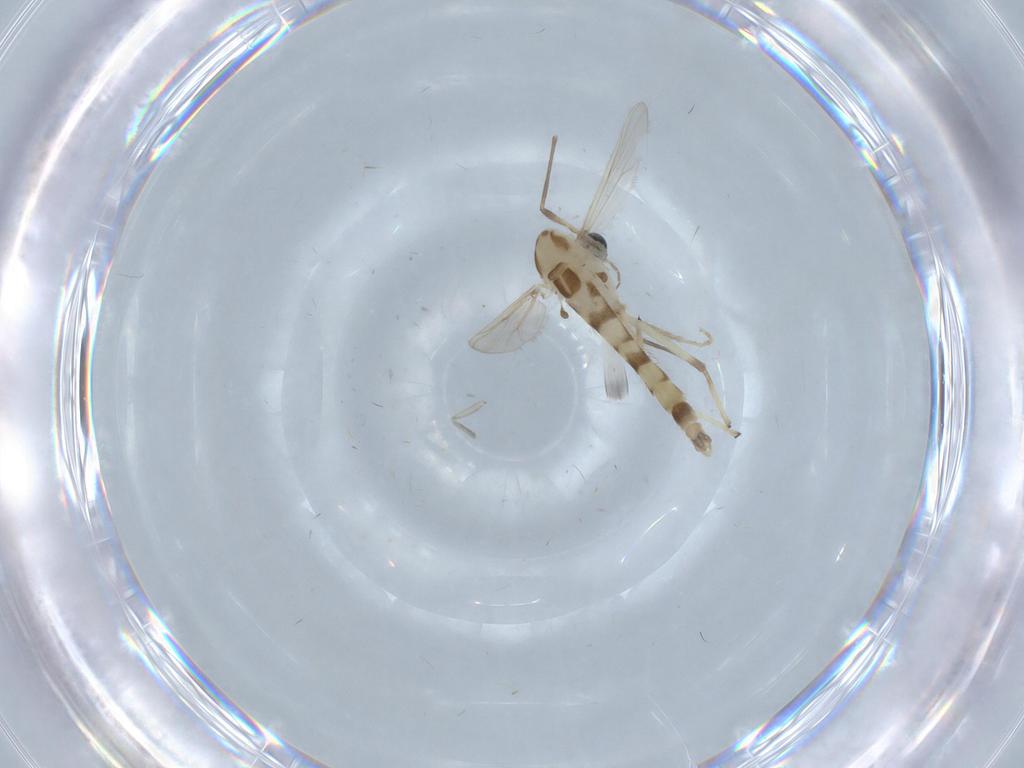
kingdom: Animalia
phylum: Arthropoda
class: Insecta
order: Diptera
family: Chironomidae
